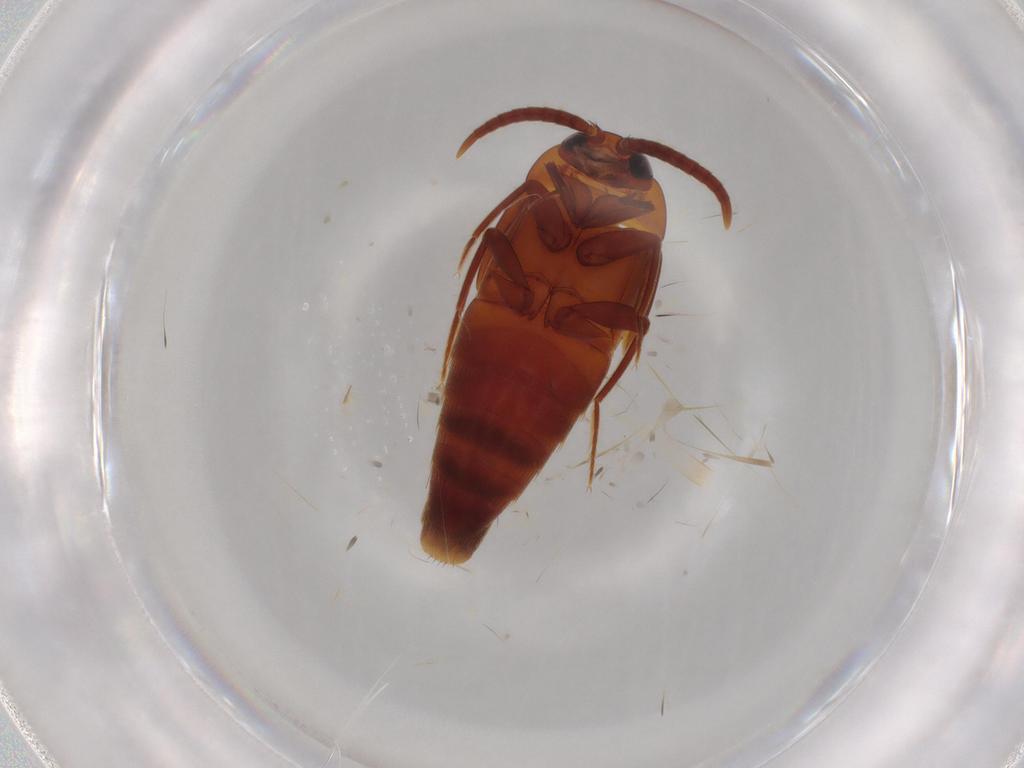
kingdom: Animalia
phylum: Arthropoda
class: Insecta
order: Coleoptera
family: Staphylinidae
